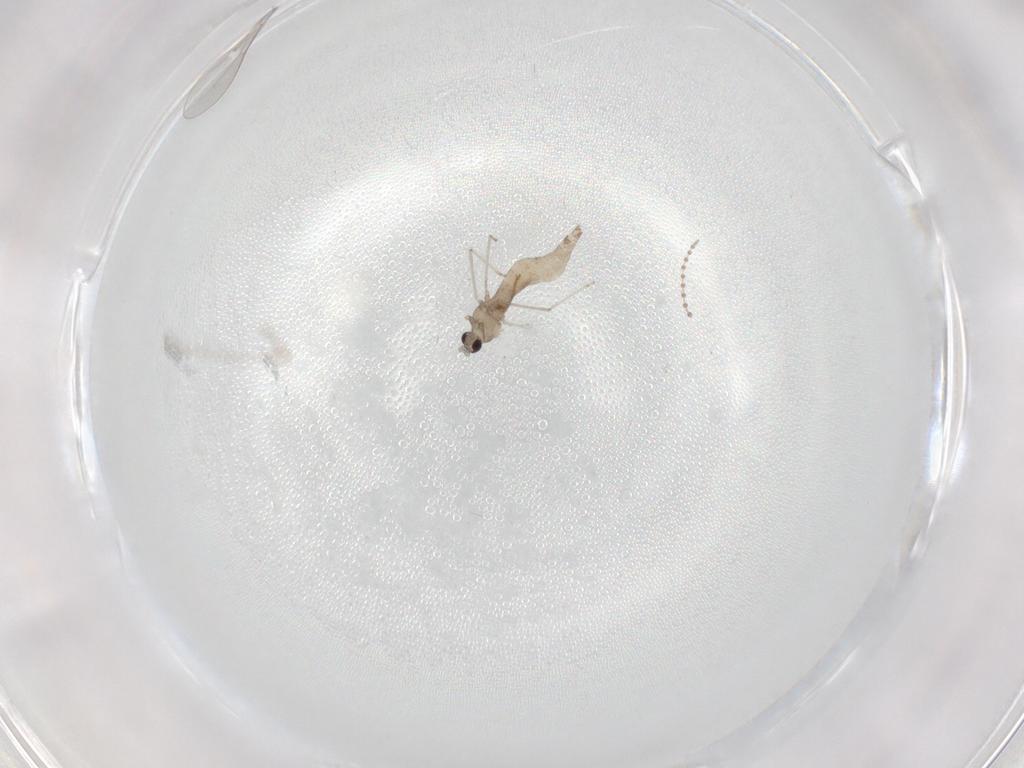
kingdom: Animalia
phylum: Arthropoda
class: Insecta
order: Diptera
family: Cecidomyiidae
